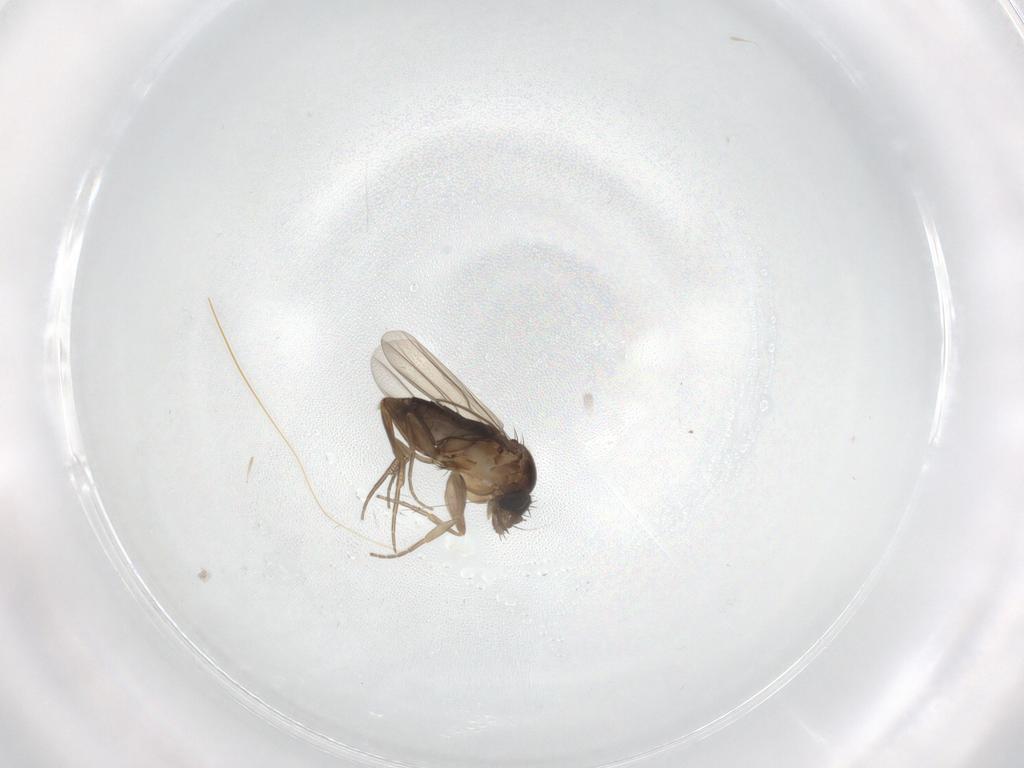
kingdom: Animalia
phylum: Arthropoda
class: Insecta
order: Diptera
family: Phoridae
